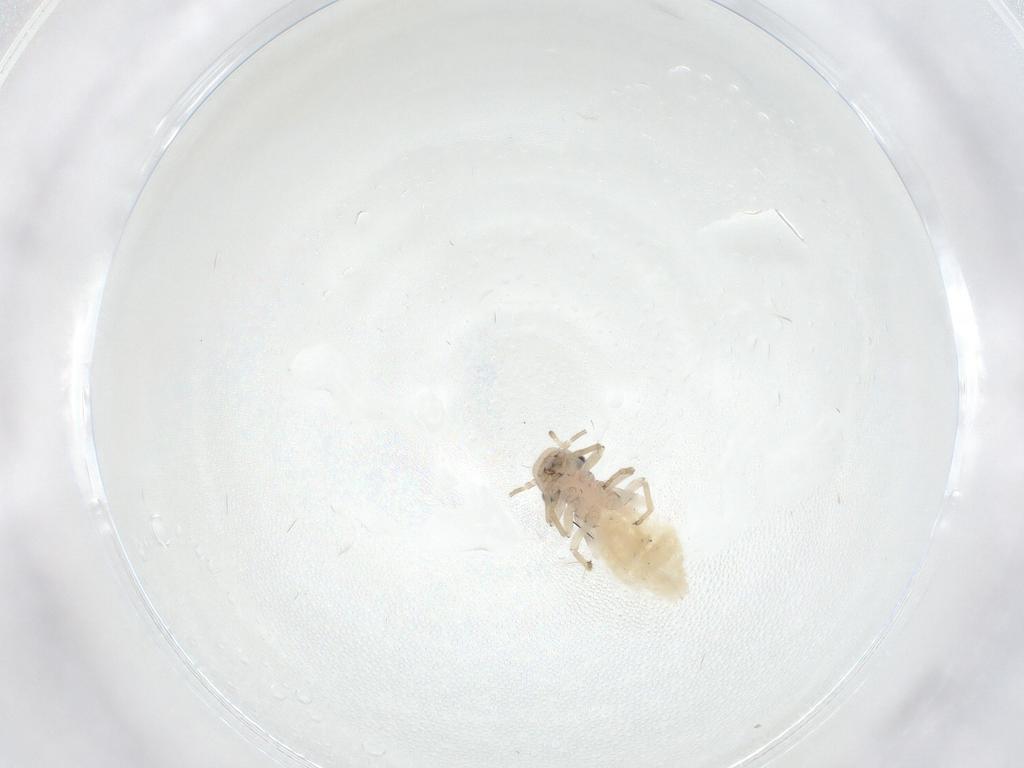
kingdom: Animalia
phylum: Arthropoda
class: Insecta
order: Psocodea
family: Caeciliusidae
